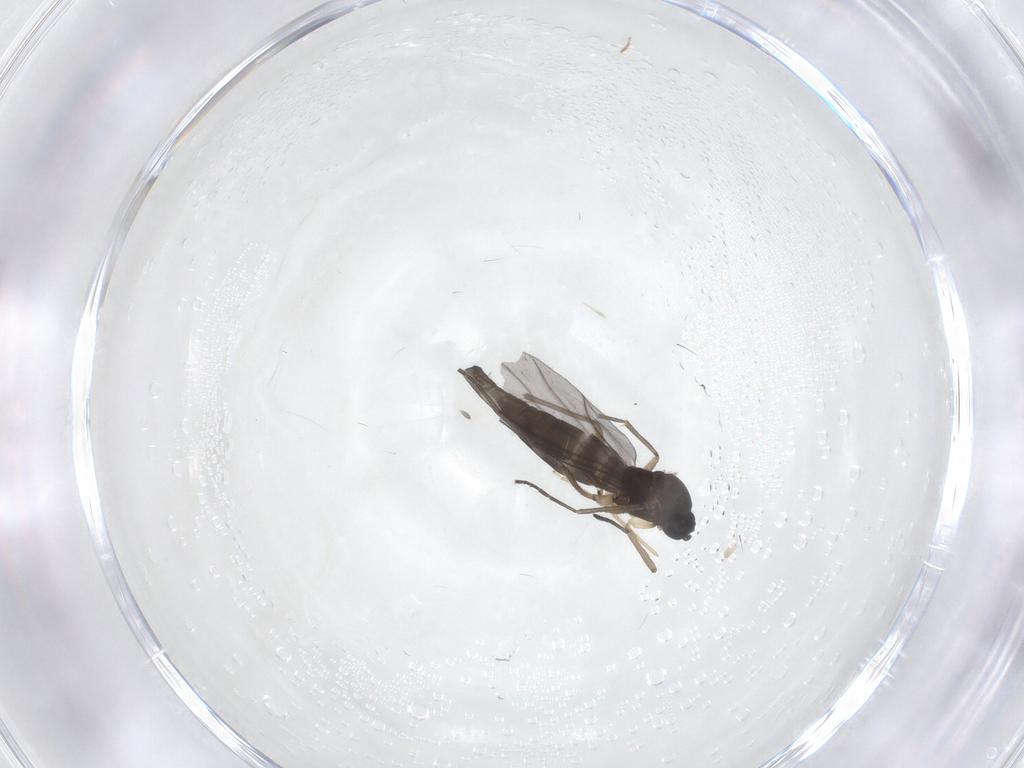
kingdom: Animalia
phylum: Arthropoda
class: Insecta
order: Diptera
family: Sciaridae
